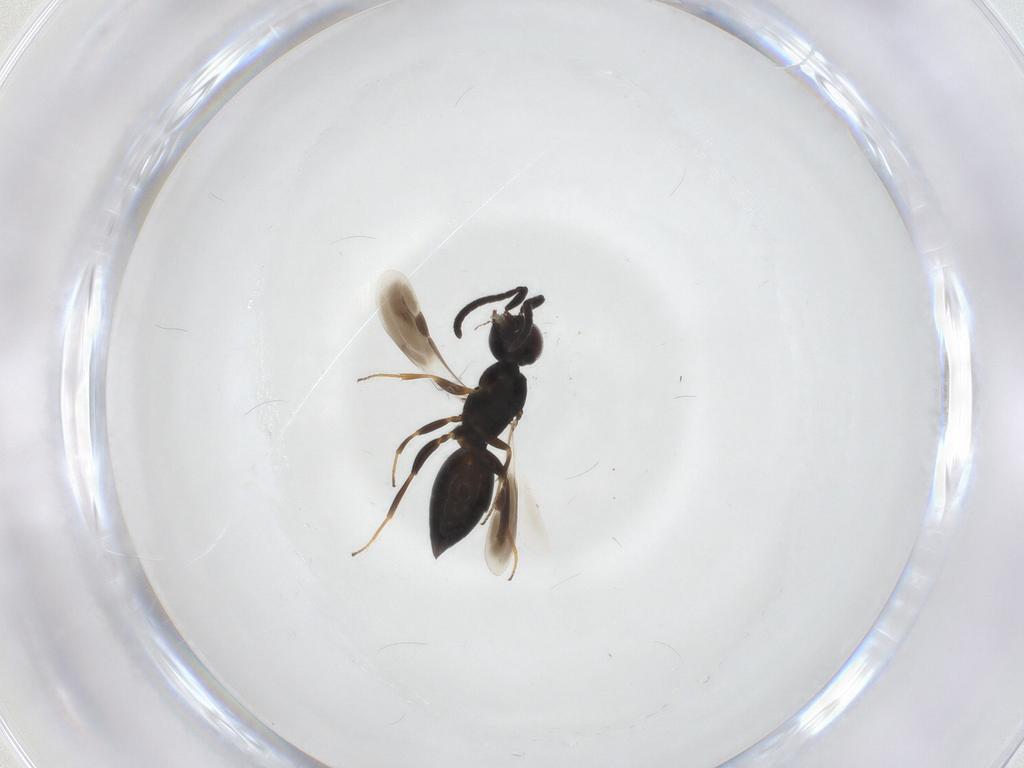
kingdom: Animalia
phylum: Arthropoda
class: Insecta
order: Hymenoptera
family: Megaspilidae
